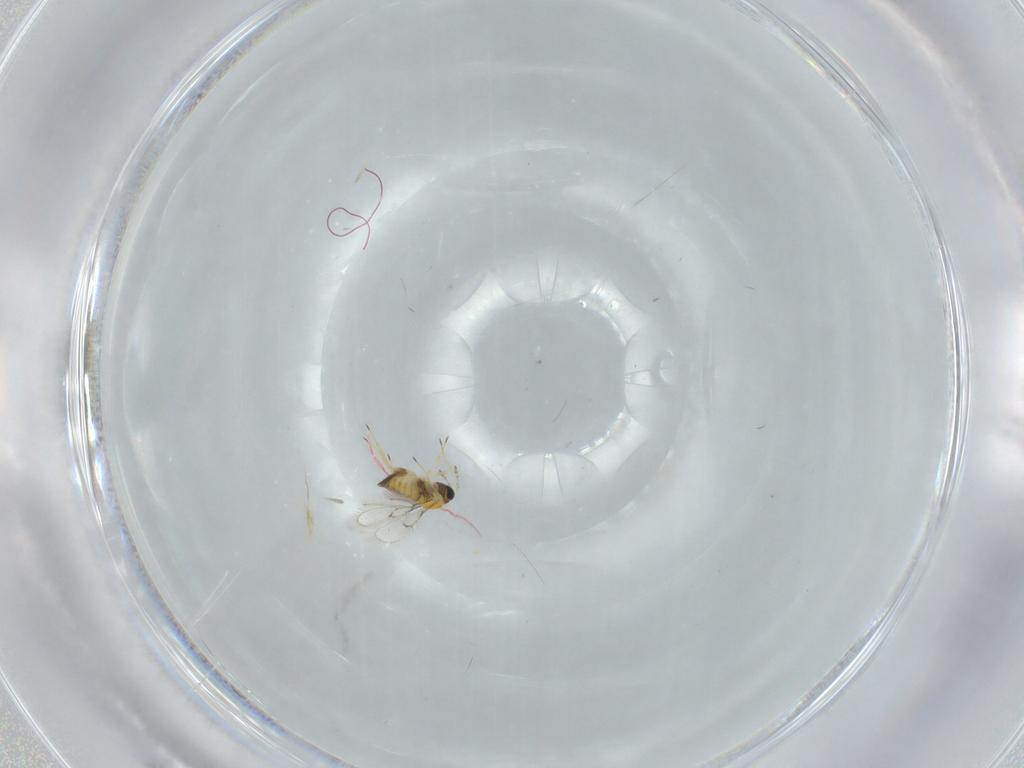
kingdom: Animalia
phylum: Arthropoda
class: Insecta
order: Hymenoptera
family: Trichogrammatidae
